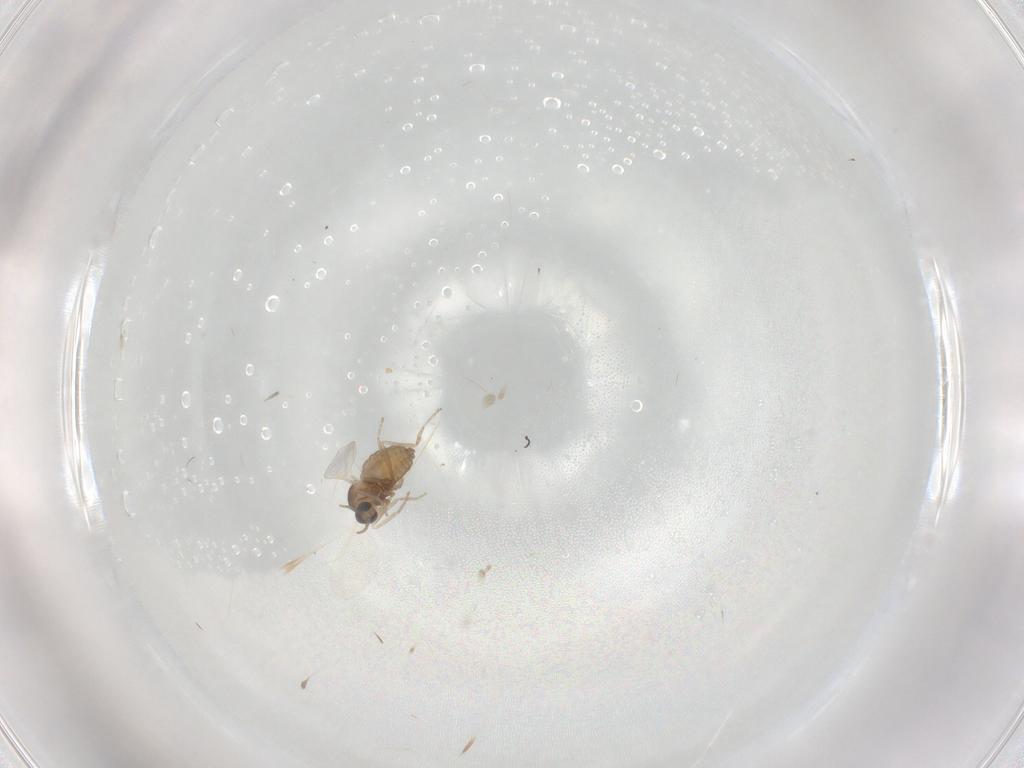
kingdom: Animalia
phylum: Arthropoda
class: Insecta
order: Diptera
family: Cecidomyiidae
